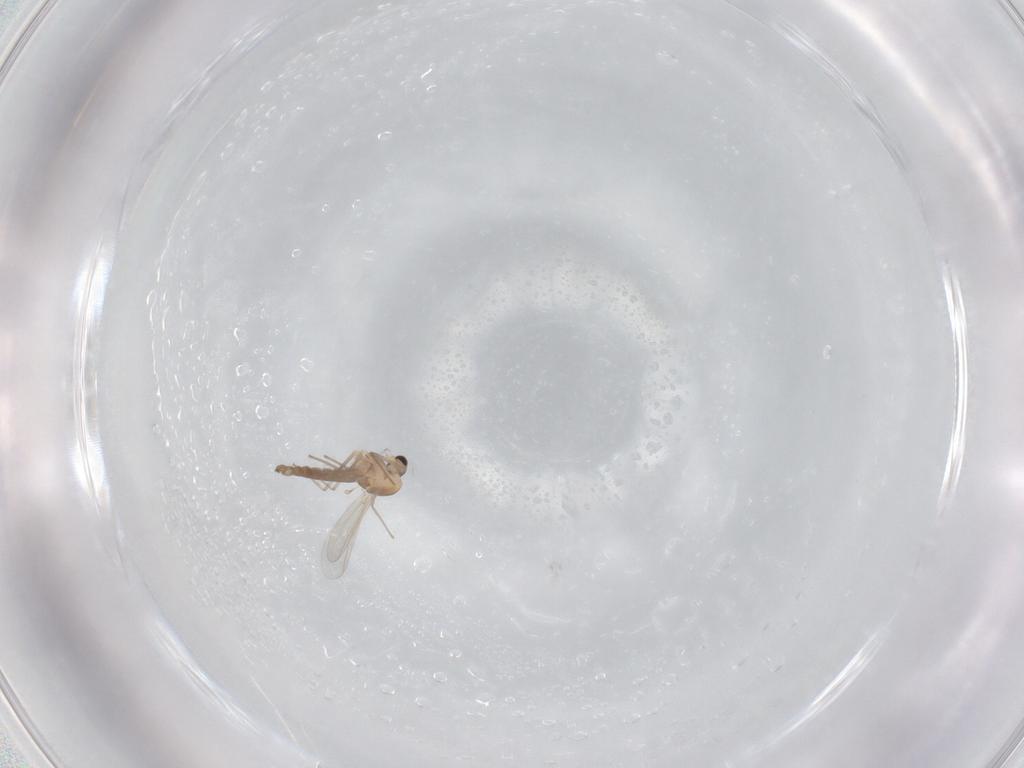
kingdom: Animalia
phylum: Arthropoda
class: Insecta
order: Diptera
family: Chironomidae
